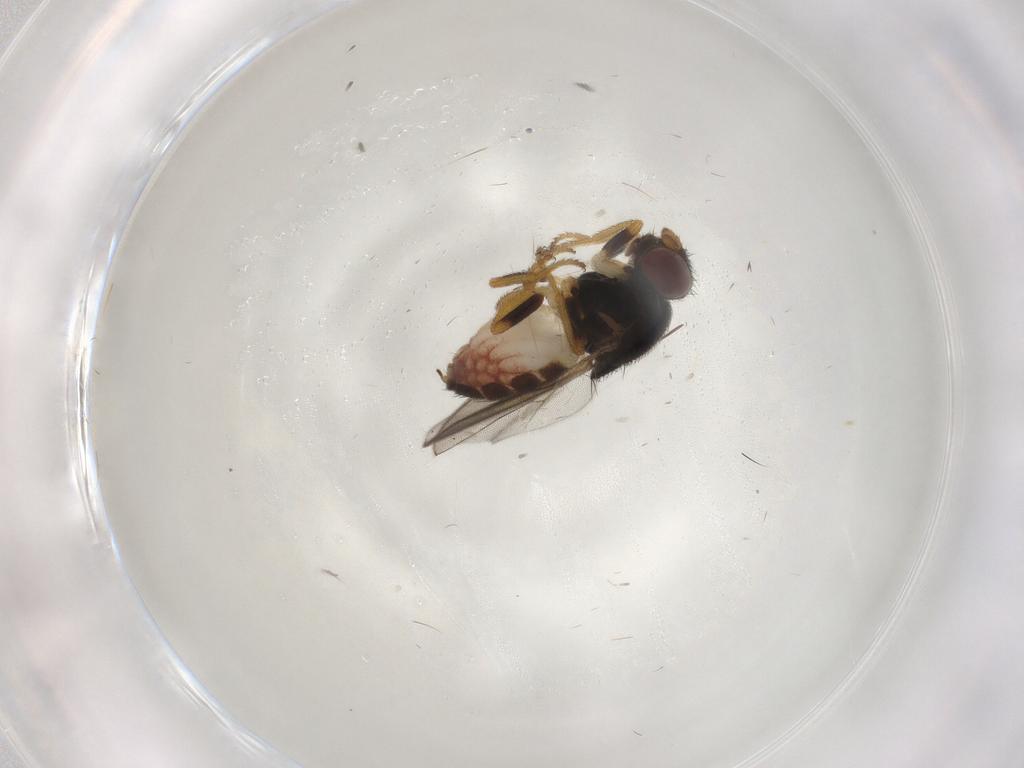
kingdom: Animalia
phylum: Arthropoda
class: Insecta
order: Diptera
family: Chloropidae
